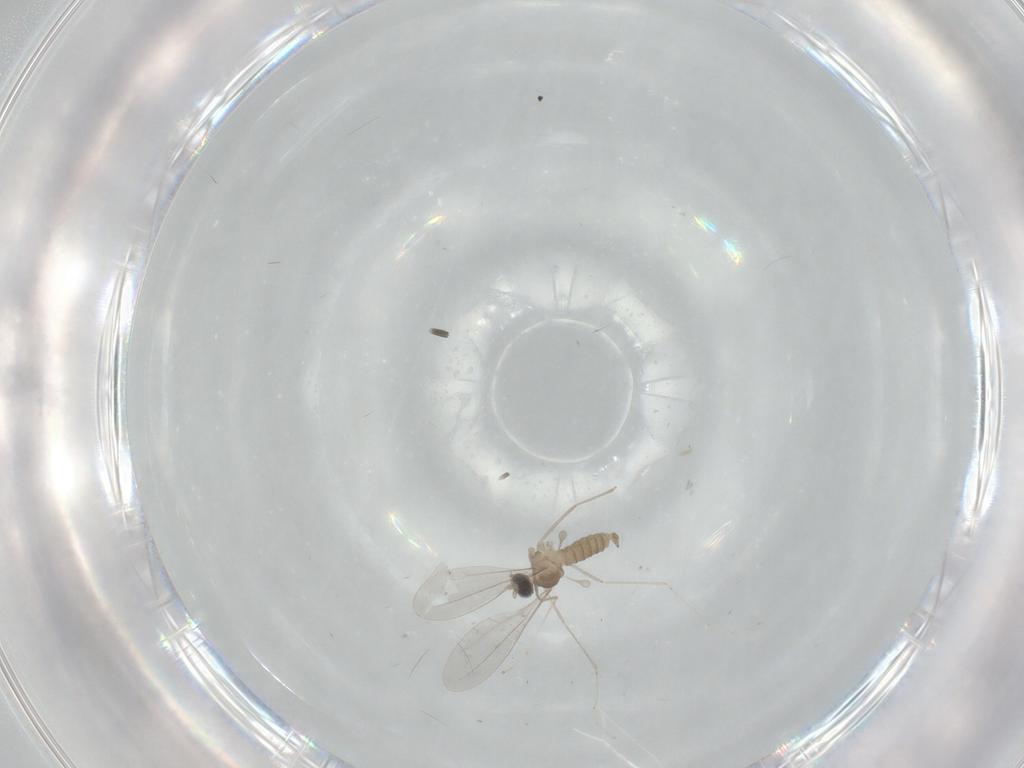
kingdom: Animalia
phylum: Arthropoda
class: Insecta
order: Diptera
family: Cecidomyiidae
